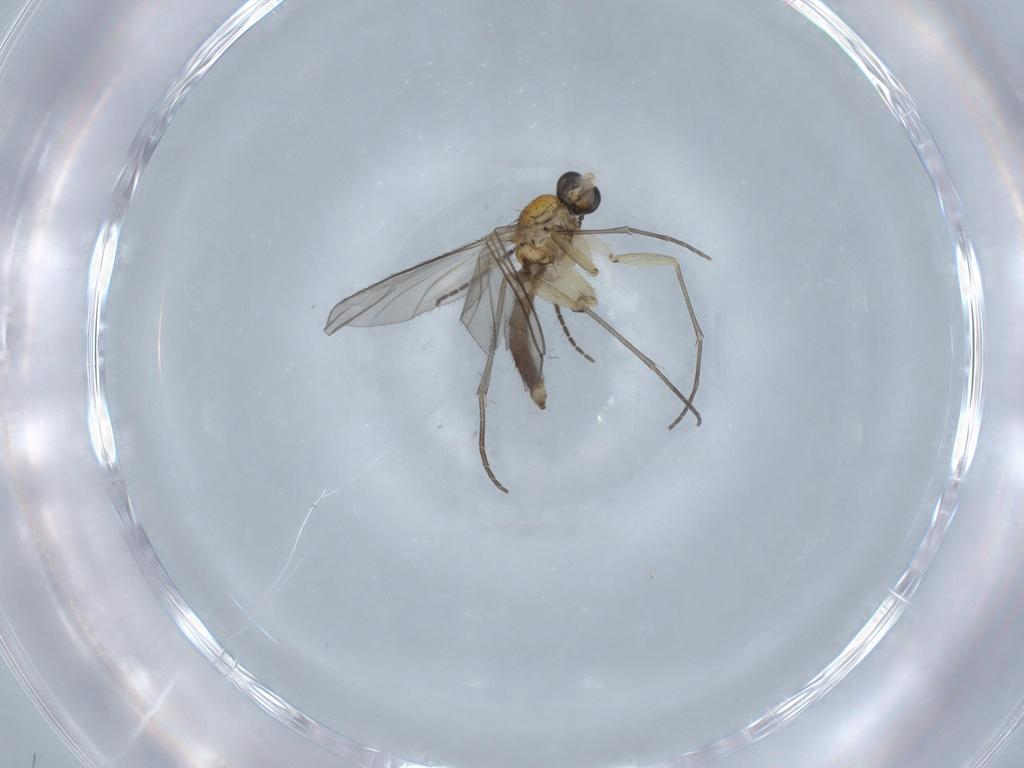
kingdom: Animalia
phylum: Arthropoda
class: Insecta
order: Diptera
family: Sciaridae
